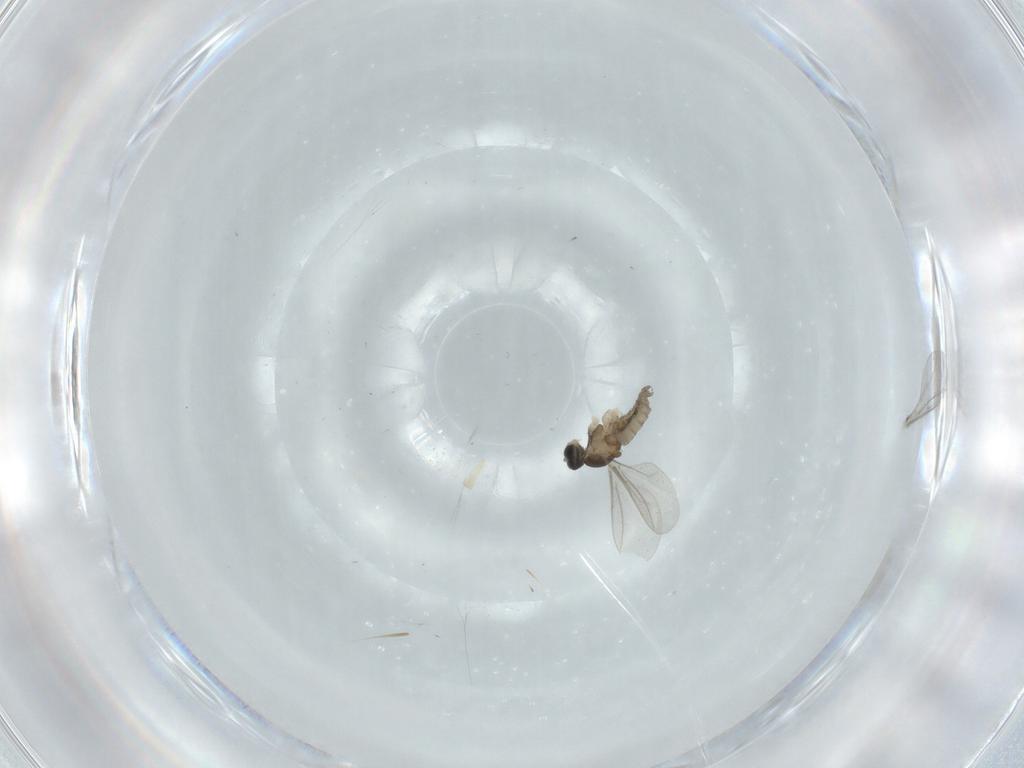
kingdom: Animalia
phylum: Arthropoda
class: Insecta
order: Diptera
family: Cecidomyiidae
